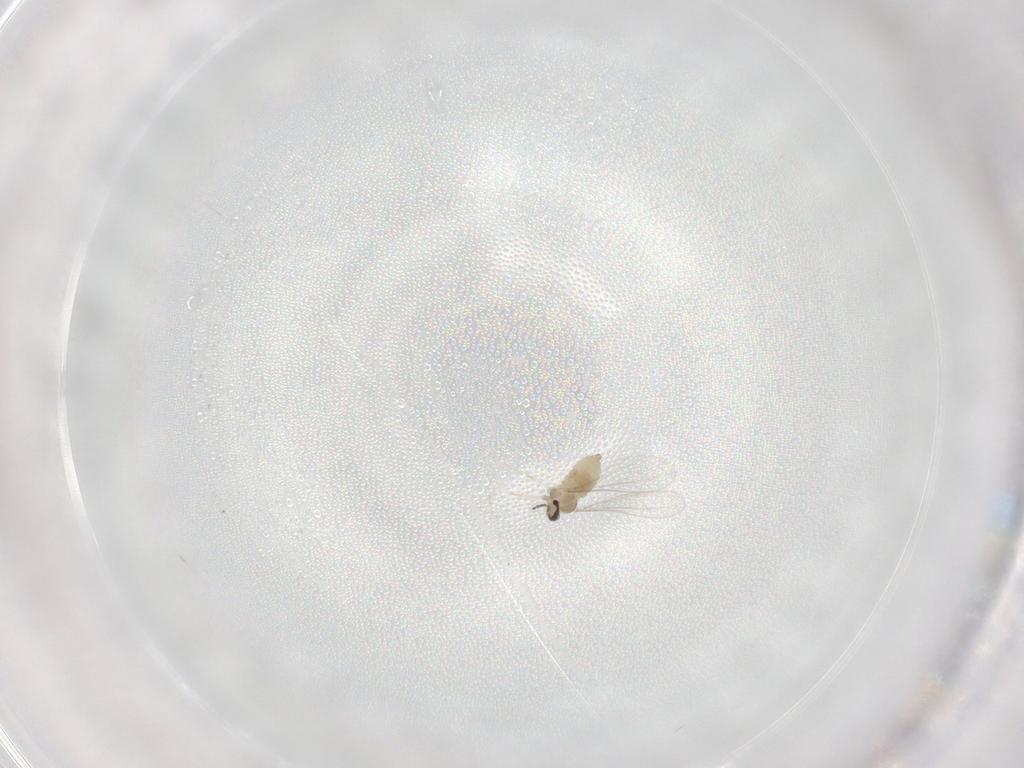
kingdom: Animalia
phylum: Arthropoda
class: Insecta
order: Diptera
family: Cecidomyiidae
